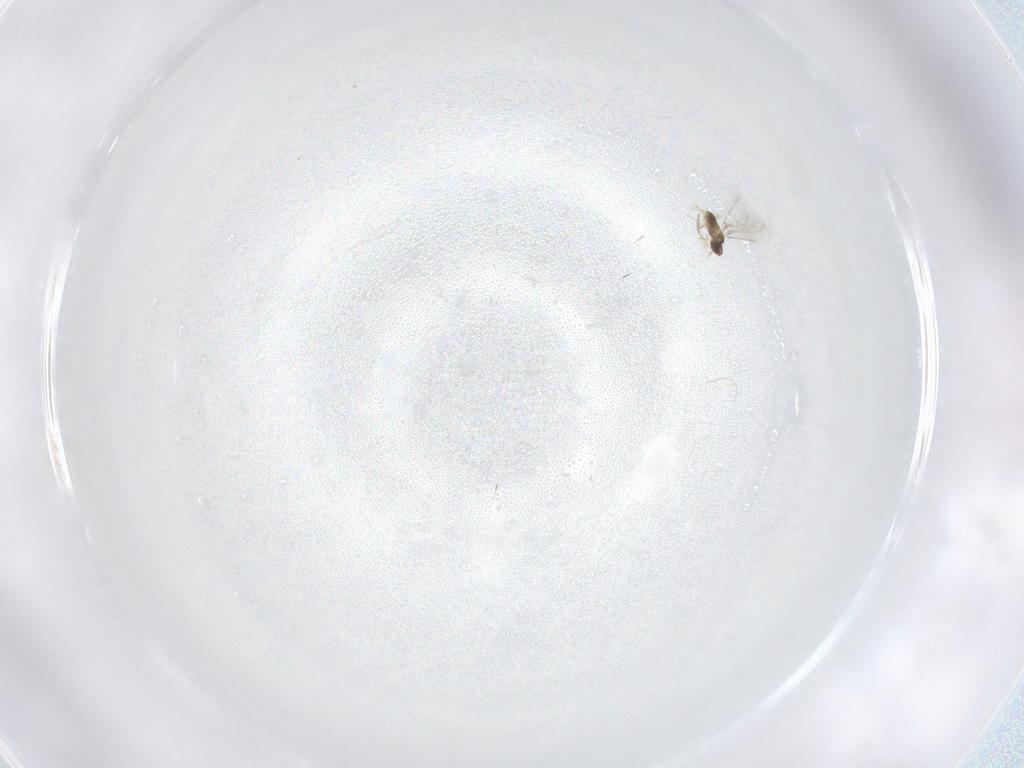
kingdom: Animalia
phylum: Arthropoda
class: Insecta
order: Hymenoptera
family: Mymaridae
